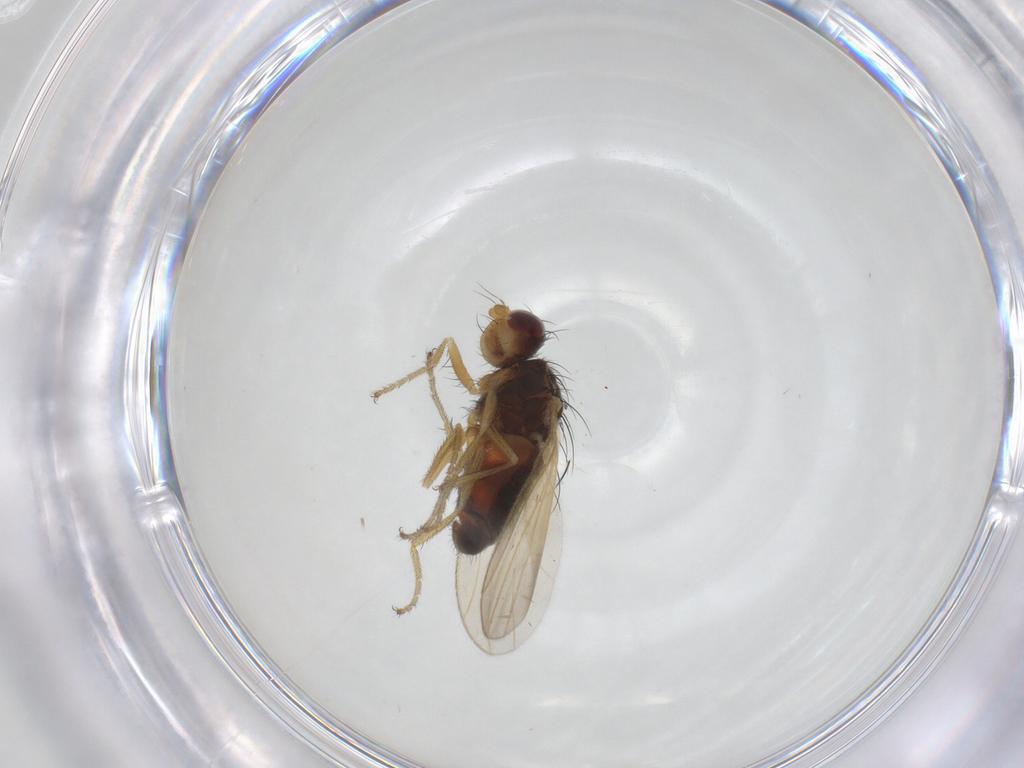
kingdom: Animalia
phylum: Arthropoda
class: Insecta
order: Diptera
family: Heleomyzidae
